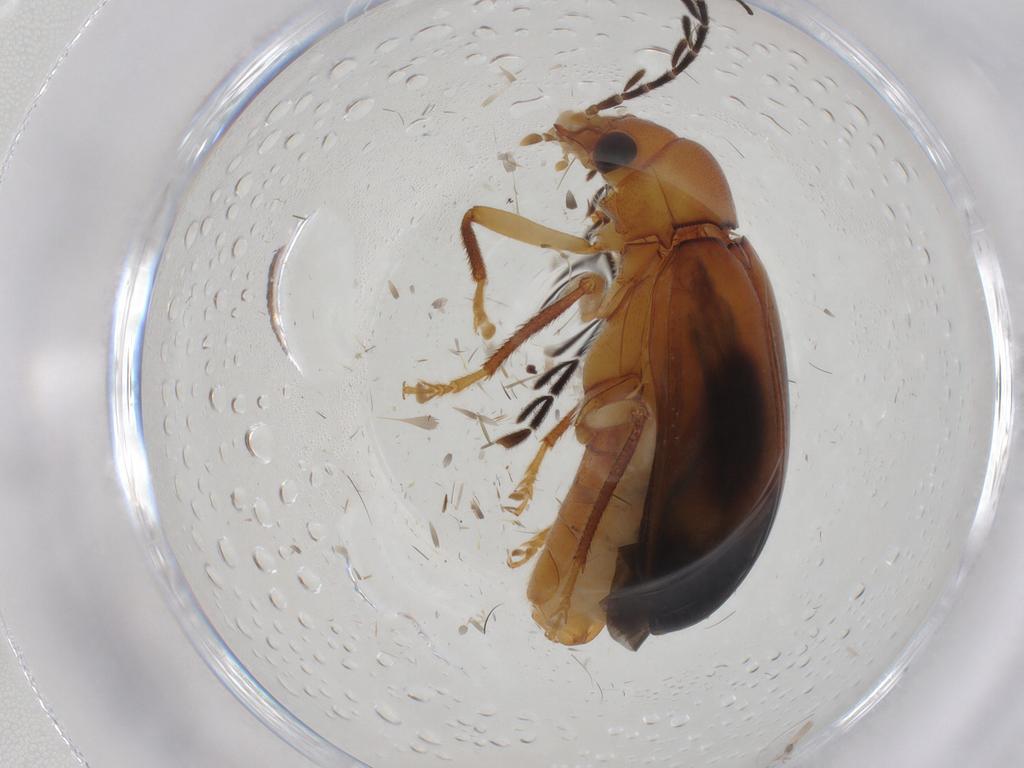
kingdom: Animalia
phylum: Arthropoda
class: Insecta
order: Coleoptera
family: Ptilodactylidae
